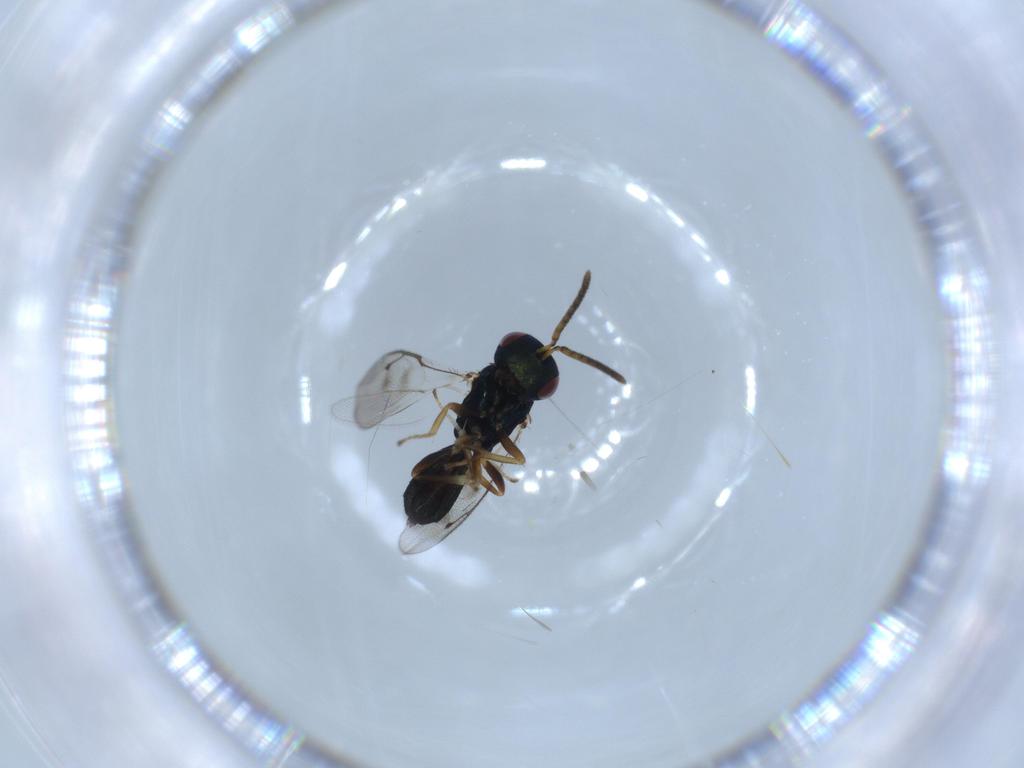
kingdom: Animalia
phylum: Arthropoda
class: Insecta
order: Hymenoptera
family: Pteromalidae
